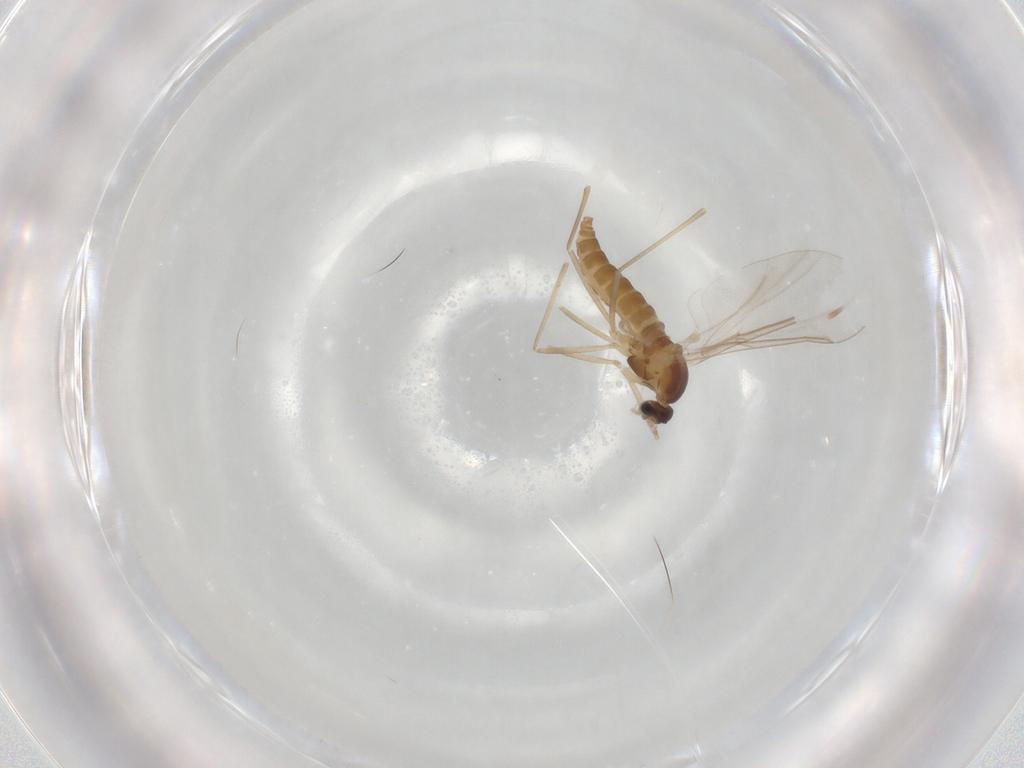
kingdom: Animalia
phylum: Arthropoda
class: Insecta
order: Diptera
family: Cecidomyiidae
